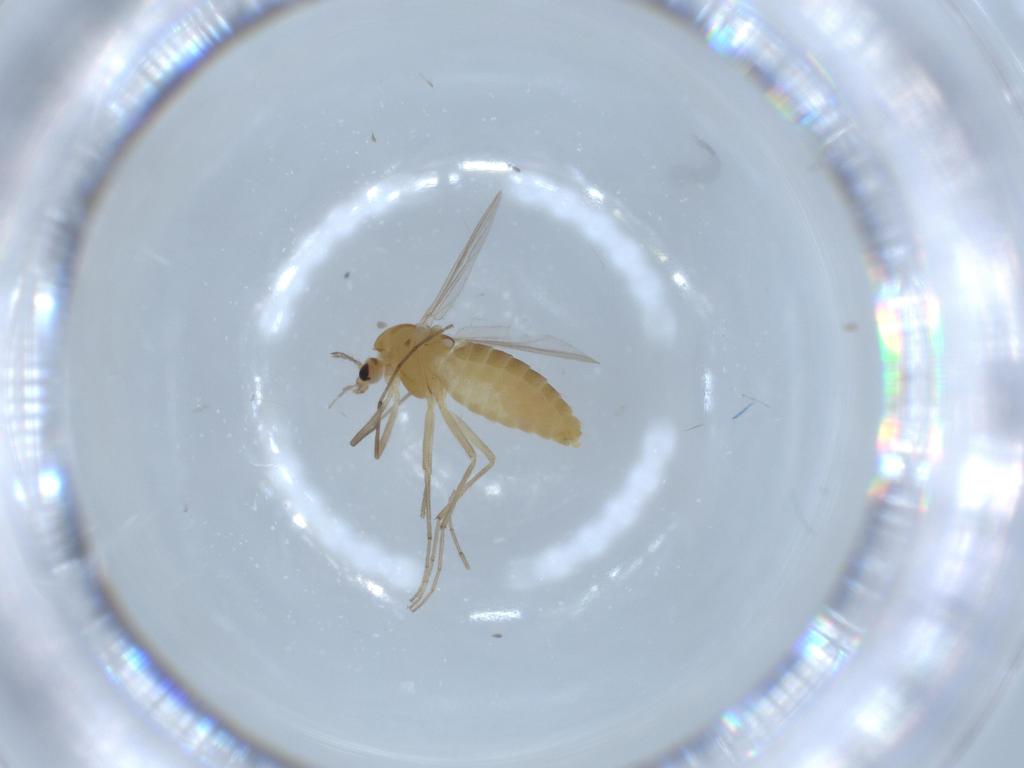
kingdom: Animalia
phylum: Arthropoda
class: Insecta
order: Diptera
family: Chironomidae
